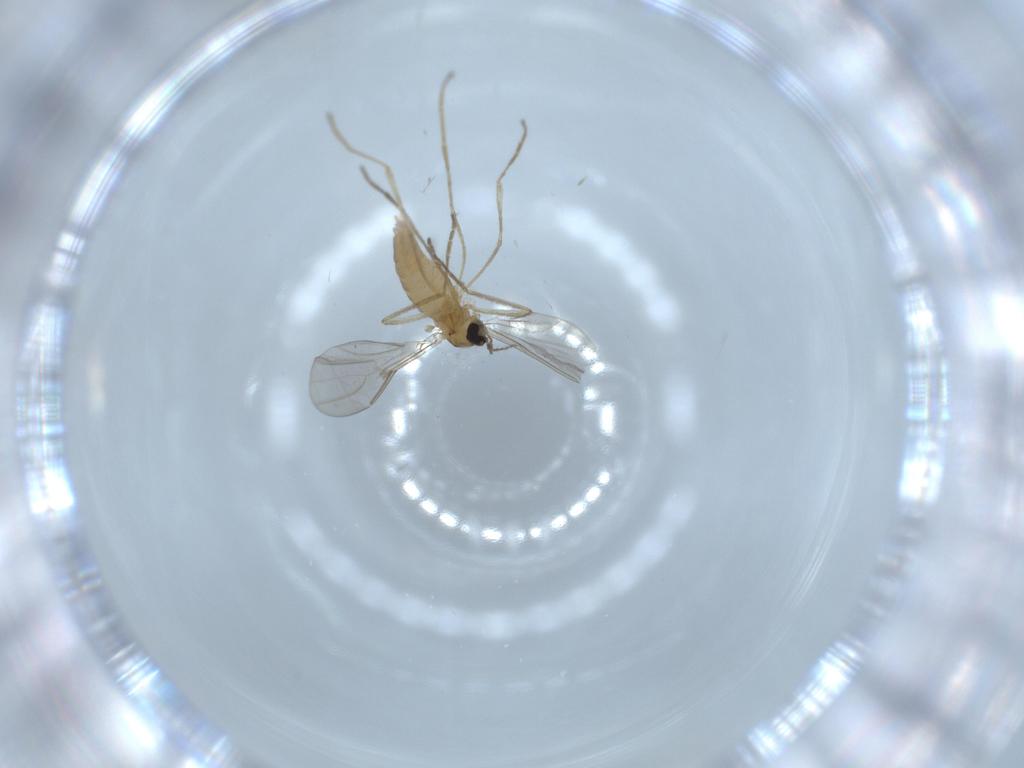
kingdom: Animalia
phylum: Arthropoda
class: Insecta
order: Diptera
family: Cecidomyiidae
